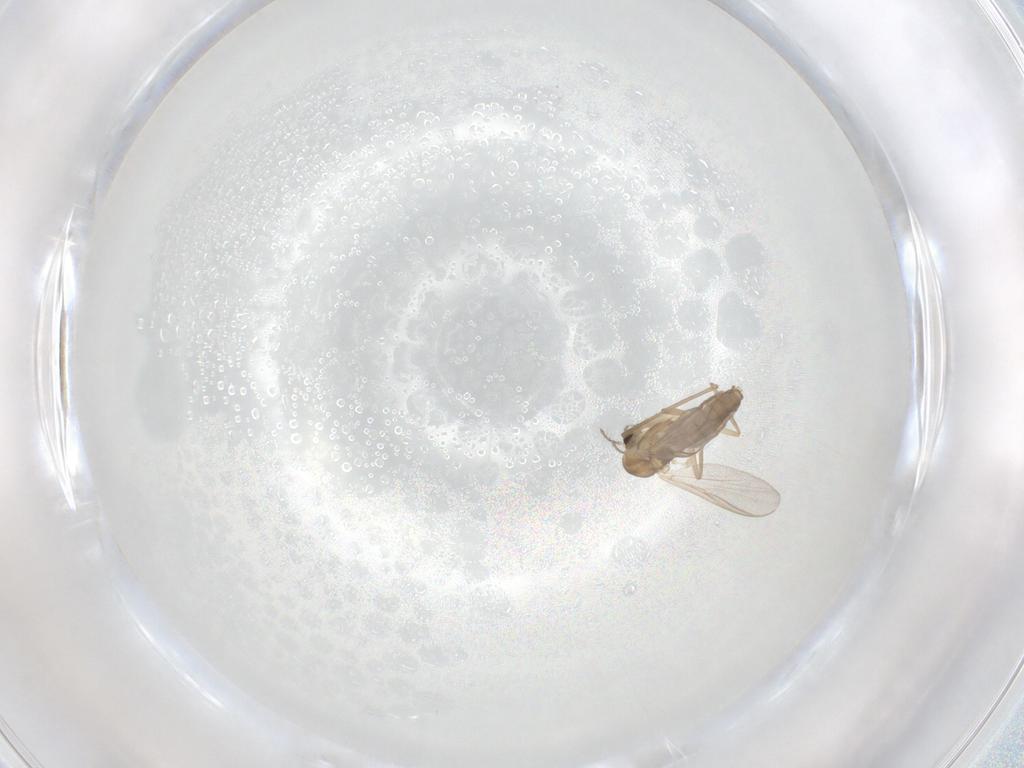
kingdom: Animalia
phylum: Arthropoda
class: Insecta
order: Diptera
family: Chironomidae
